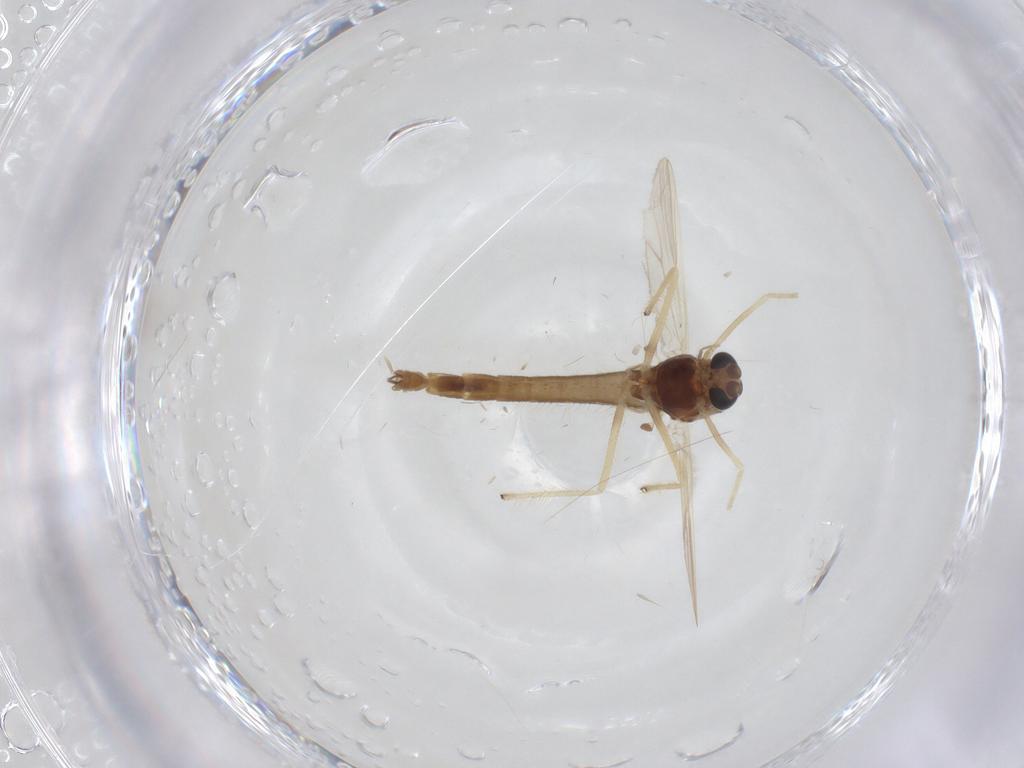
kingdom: Animalia
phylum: Arthropoda
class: Insecta
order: Diptera
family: Chironomidae
